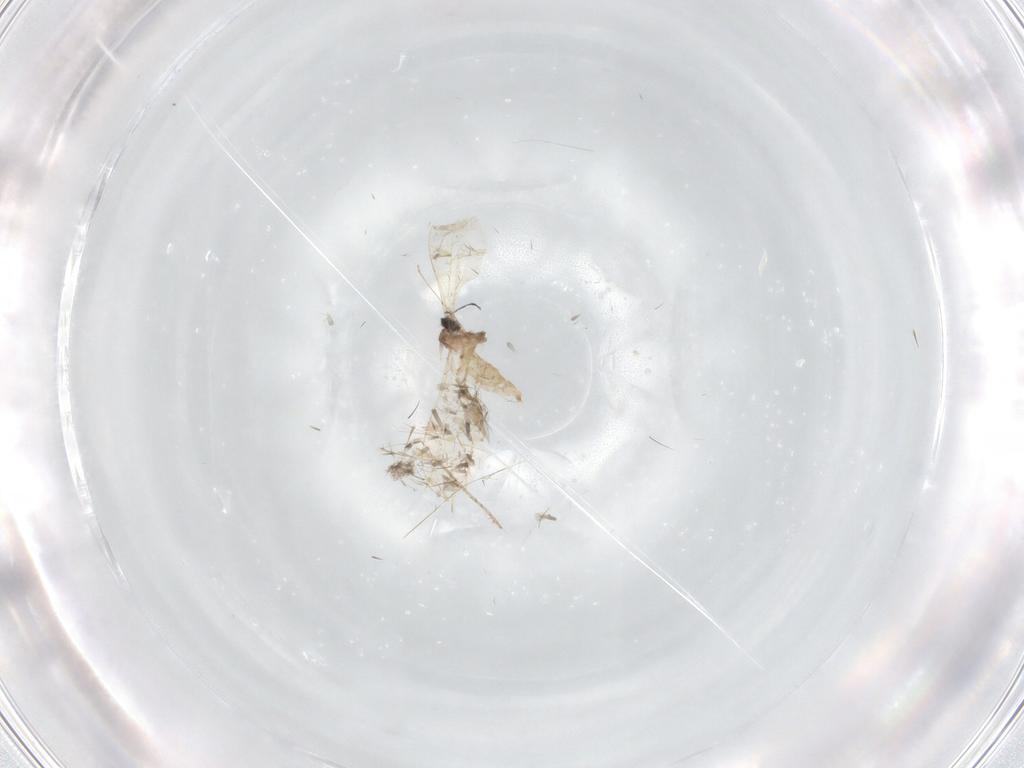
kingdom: Animalia
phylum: Arthropoda
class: Insecta
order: Diptera
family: Cecidomyiidae
